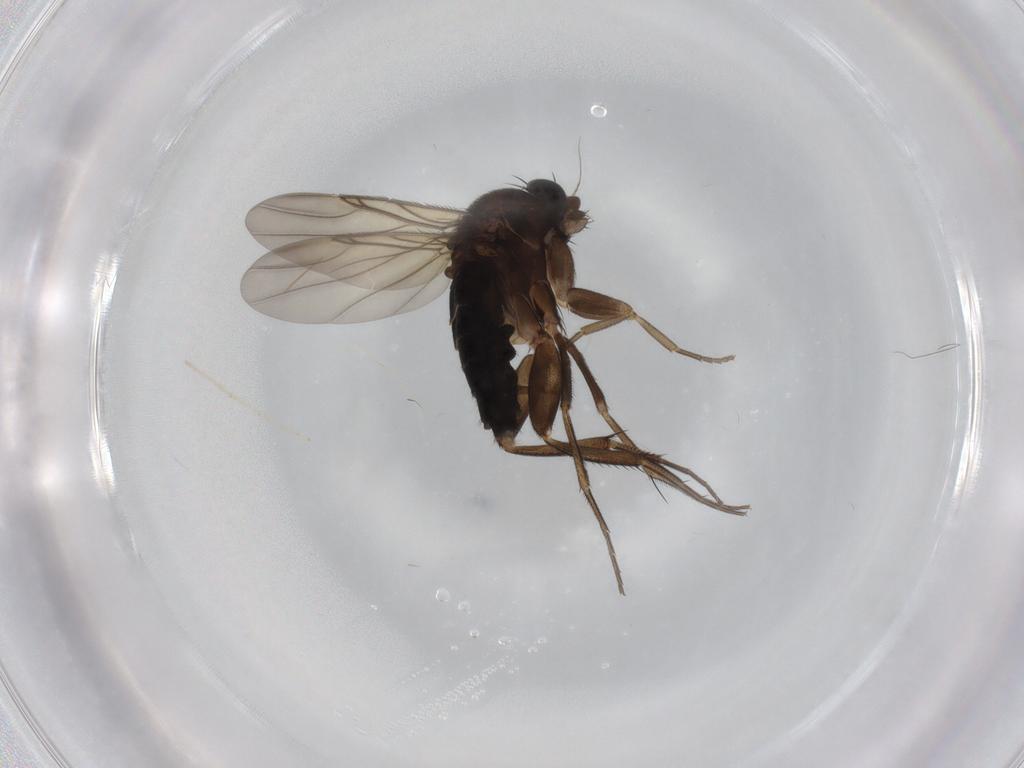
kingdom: Animalia
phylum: Arthropoda
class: Insecta
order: Diptera
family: Phoridae
